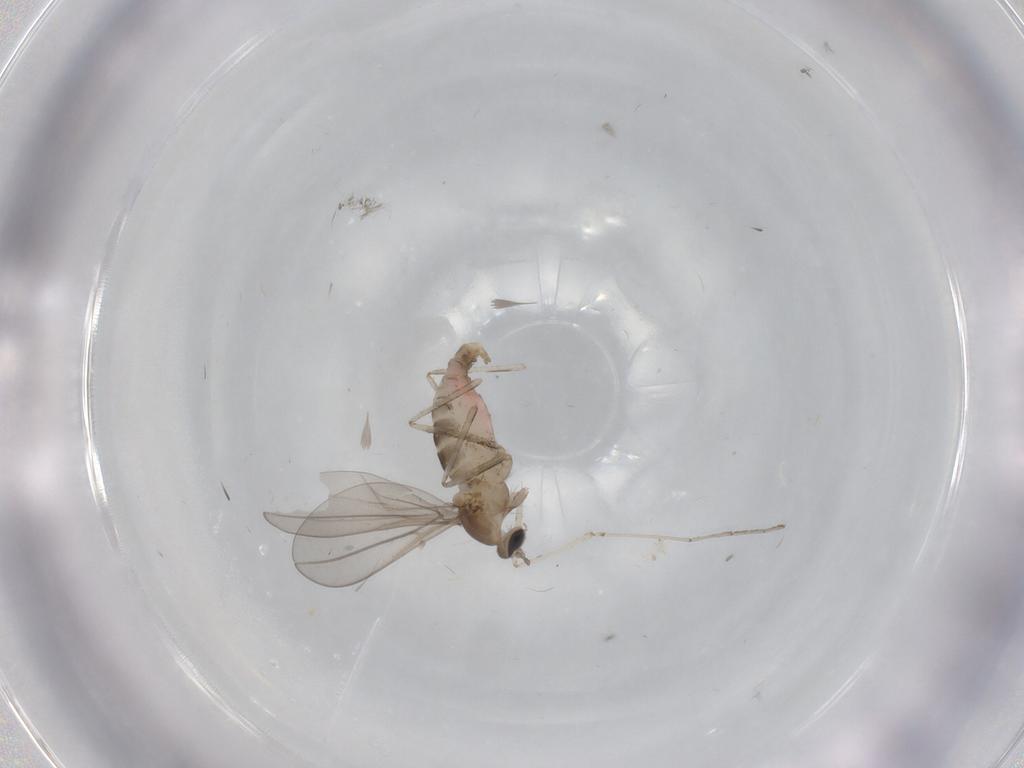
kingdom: Animalia
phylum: Arthropoda
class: Insecta
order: Diptera
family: Cecidomyiidae
